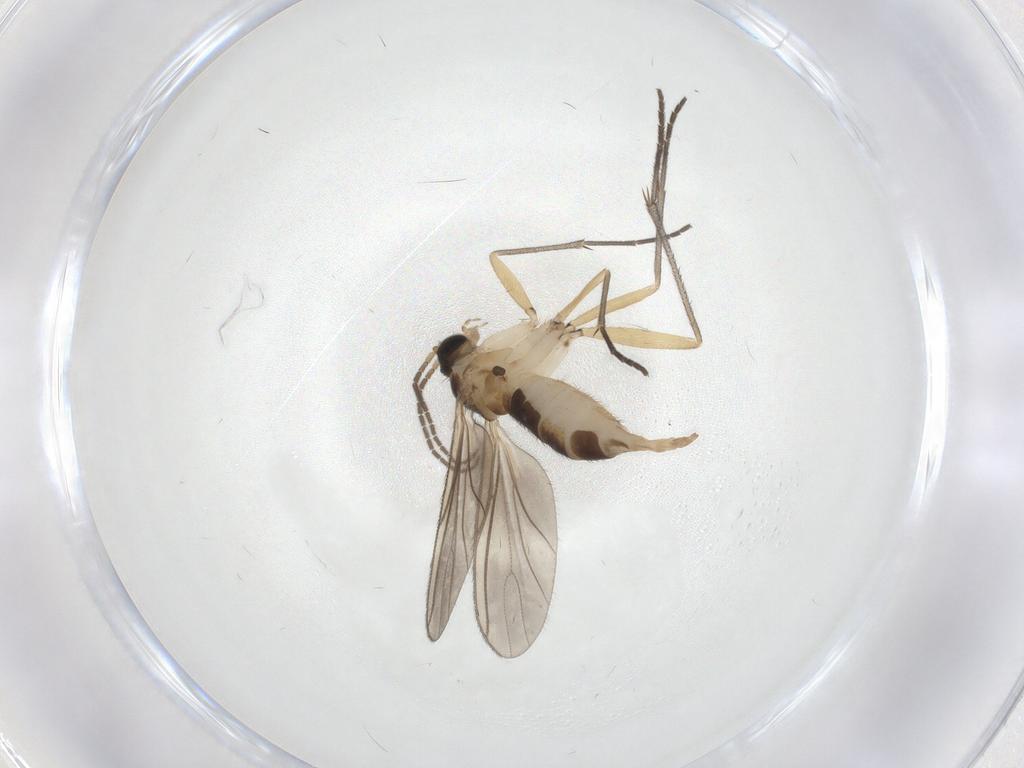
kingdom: Animalia
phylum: Arthropoda
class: Insecta
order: Diptera
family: Sciaridae
